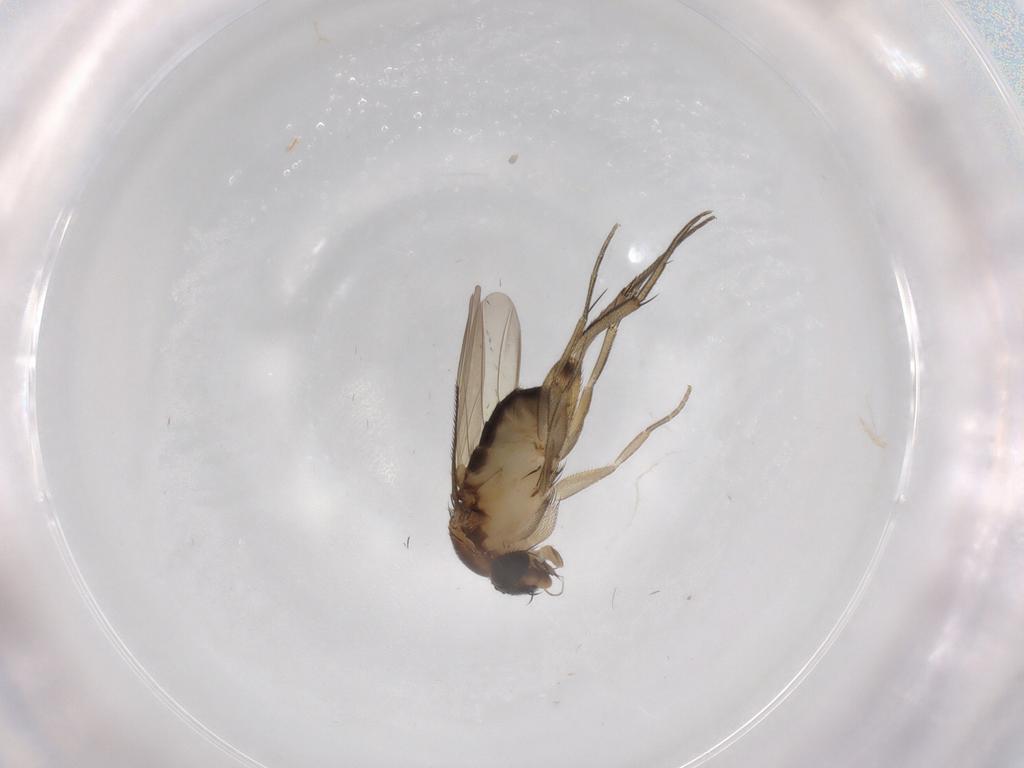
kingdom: Animalia
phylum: Arthropoda
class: Insecta
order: Diptera
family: Phoridae
